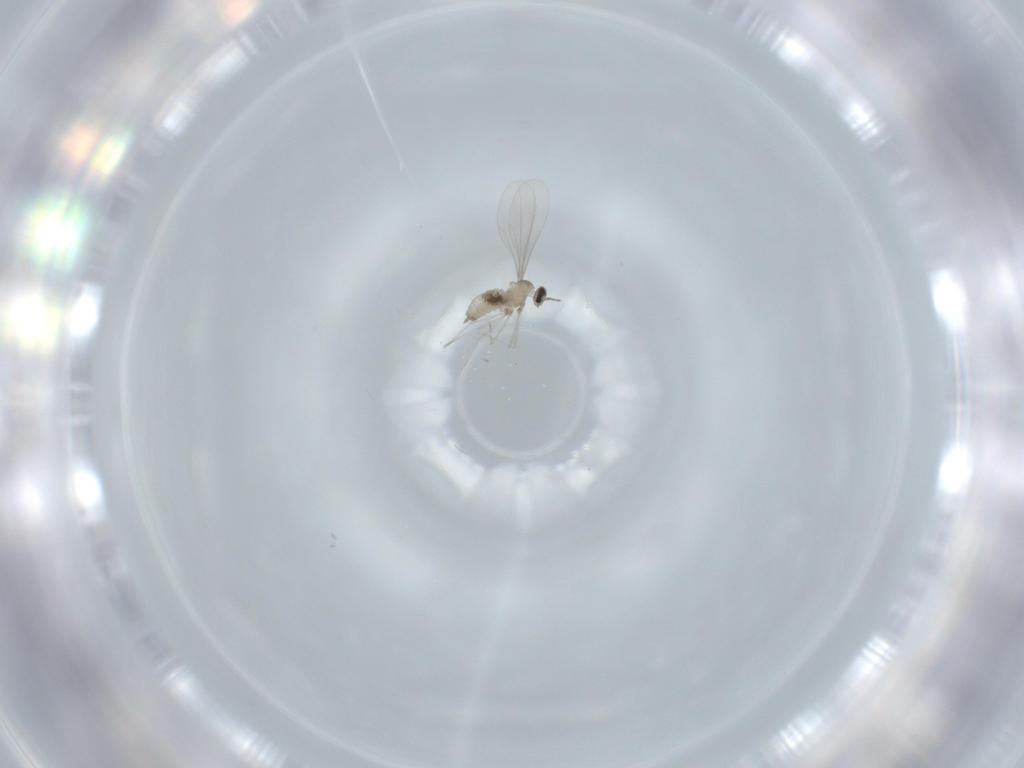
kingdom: Animalia
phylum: Arthropoda
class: Insecta
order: Diptera
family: Cecidomyiidae
